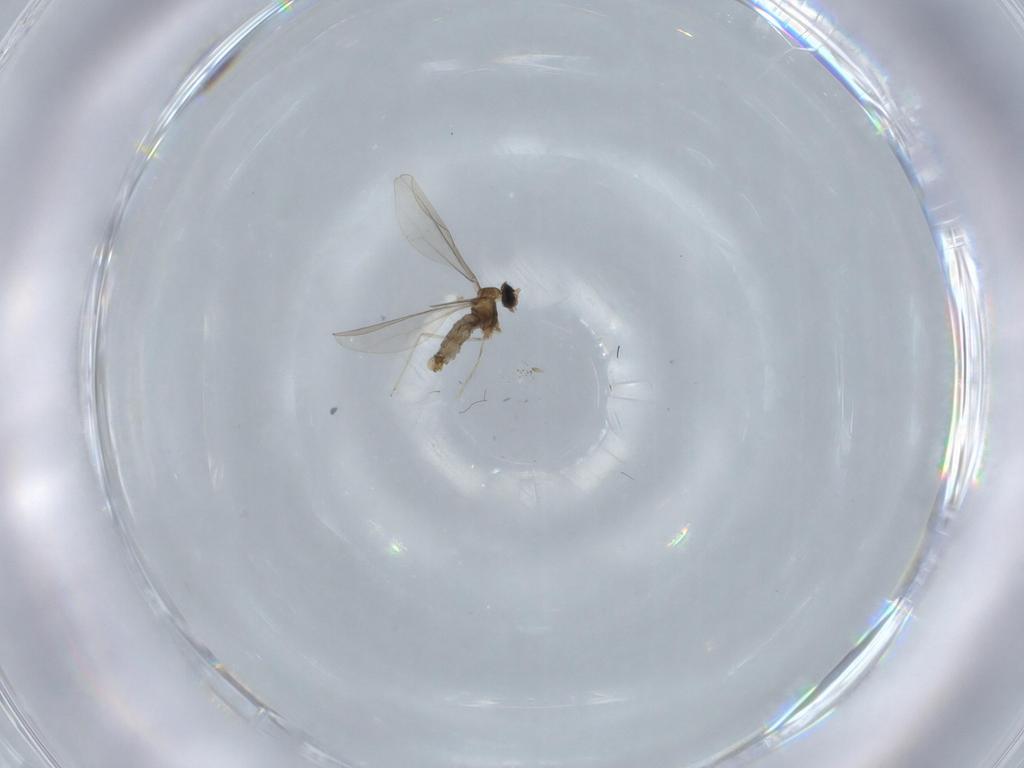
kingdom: Animalia
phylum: Arthropoda
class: Insecta
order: Diptera
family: Cecidomyiidae
